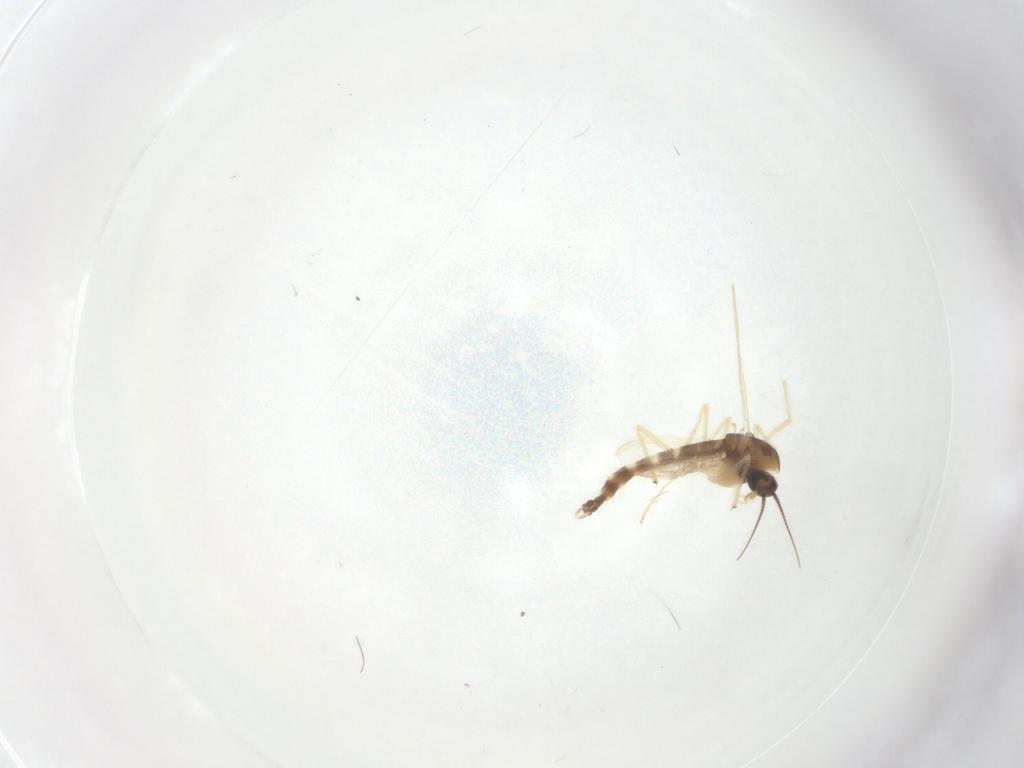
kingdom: Animalia
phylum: Arthropoda
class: Insecta
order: Diptera
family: Chironomidae
